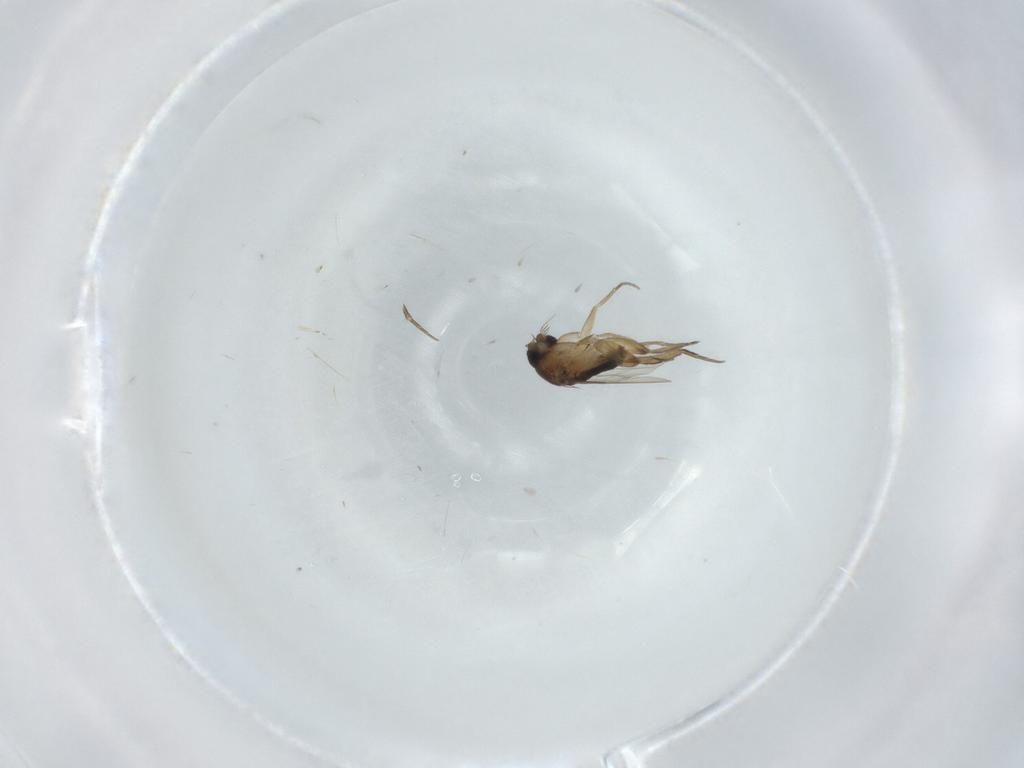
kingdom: Animalia
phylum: Arthropoda
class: Insecta
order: Diptera
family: Phoridae
